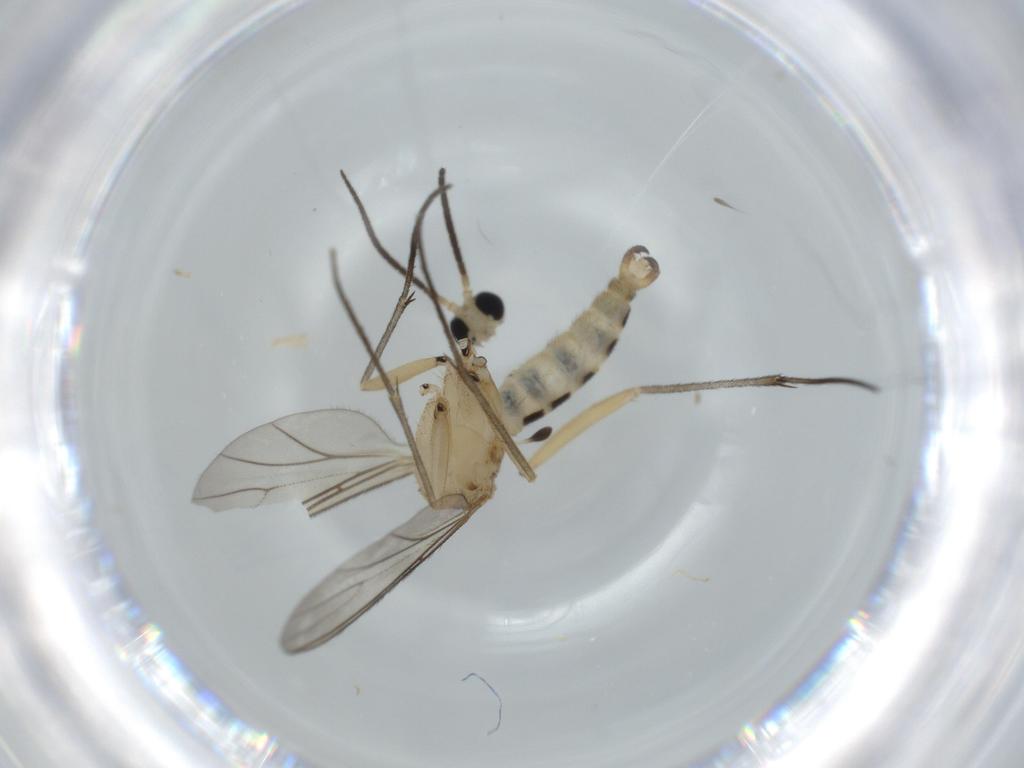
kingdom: Animalia
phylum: Arthropoda
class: Insecta
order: Diptera
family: Sciaridae
